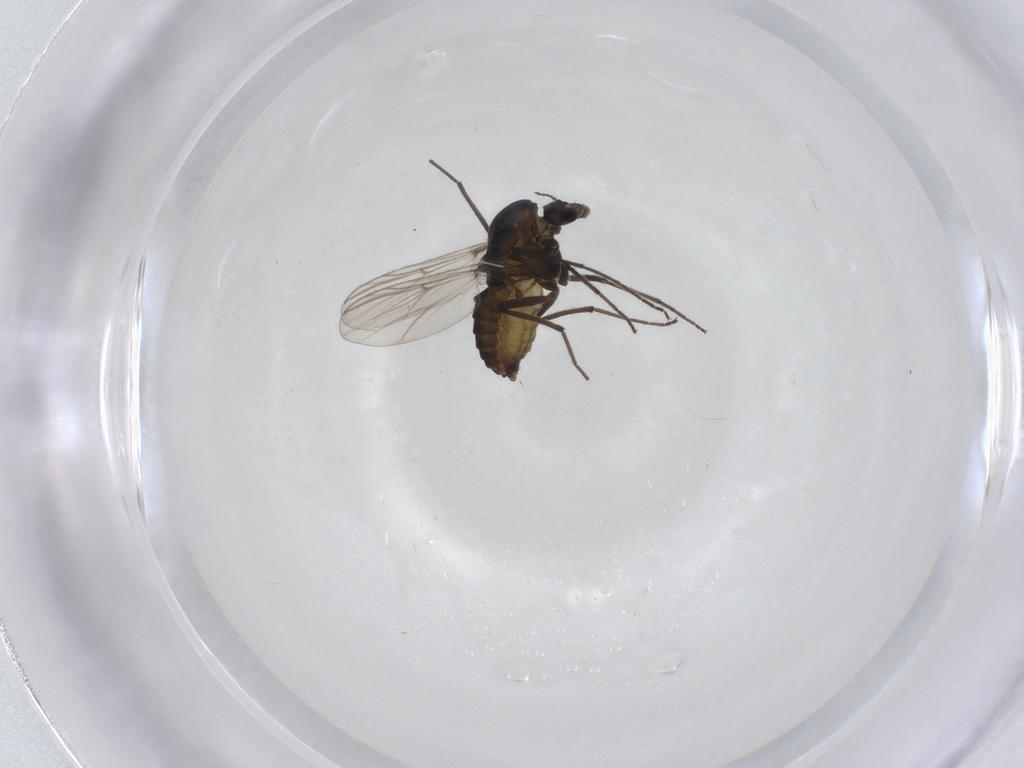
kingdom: Animalia
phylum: Arthropoda
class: Insecta
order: Diptera
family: Chironomidae
